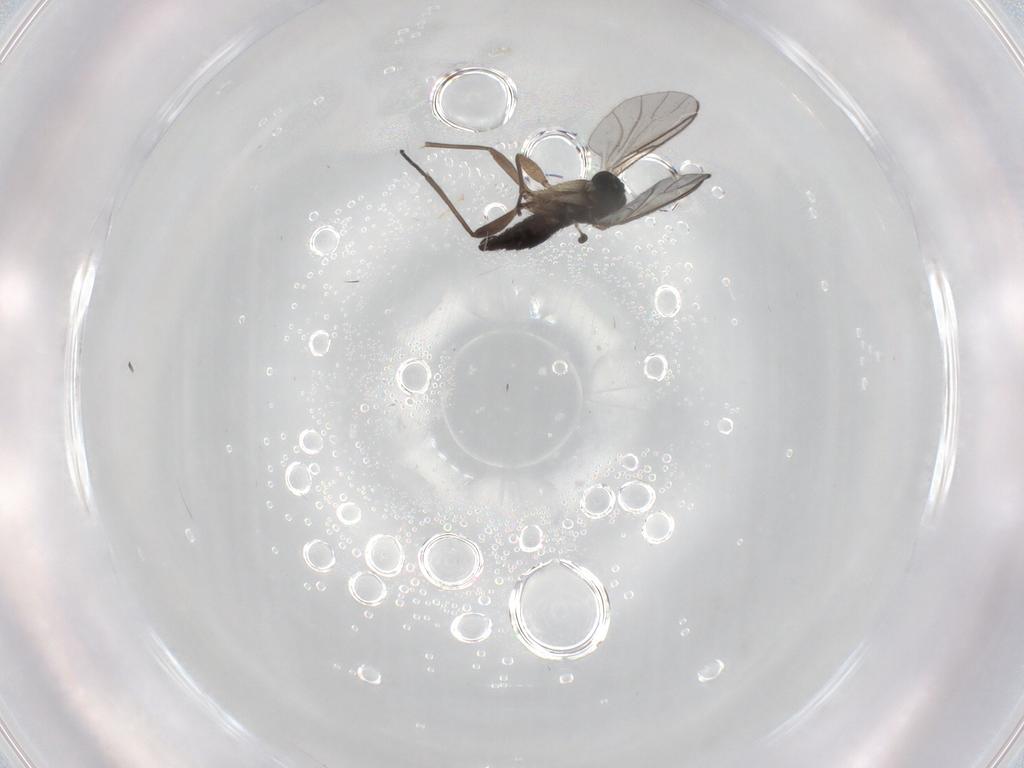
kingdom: Animalia
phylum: Arthropoda
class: Insecta
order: Diptera
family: Sciaridae
